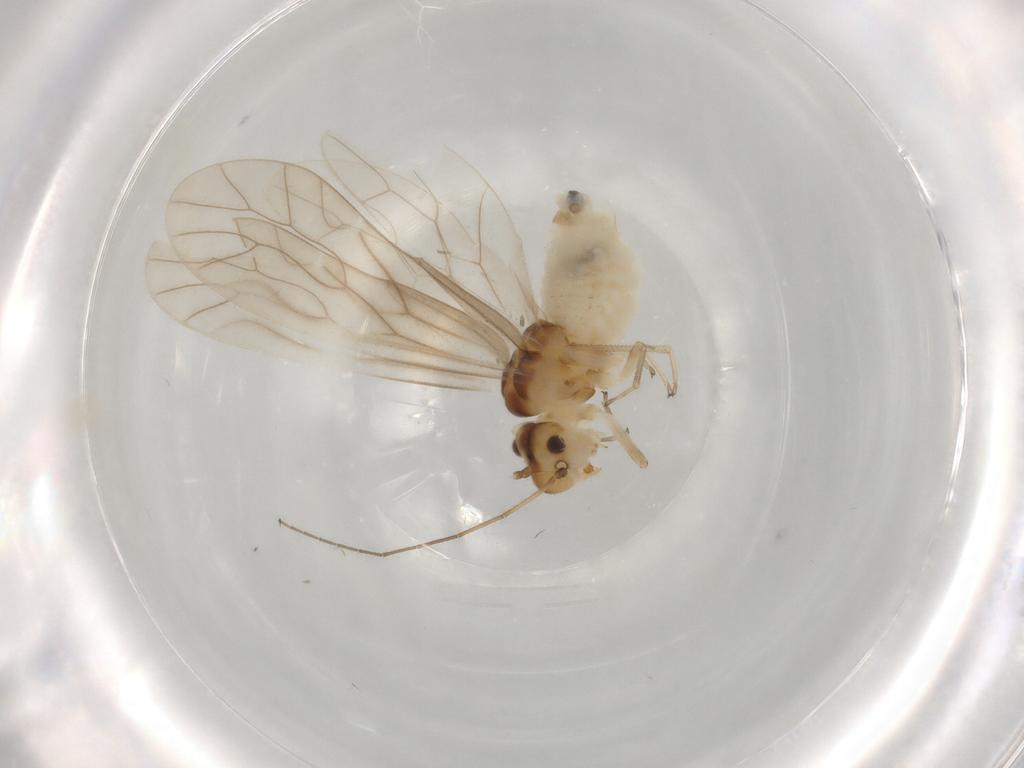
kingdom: Animalia
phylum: Arthropoda
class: Insecta
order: Psocodea
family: Caeciliusidae
